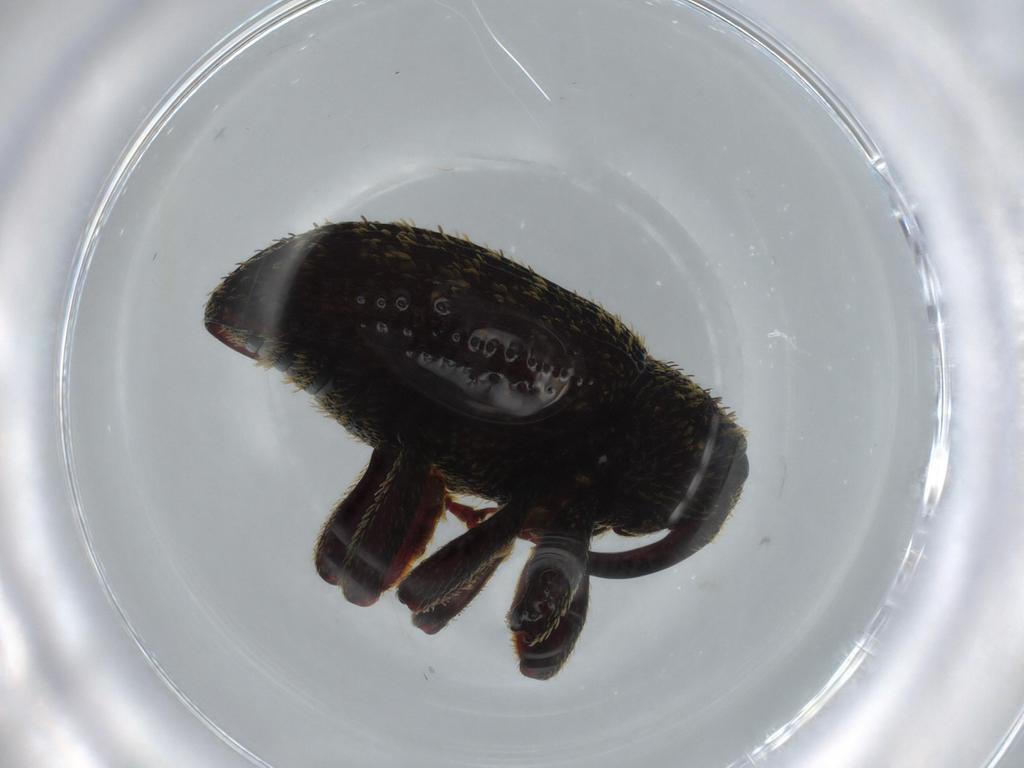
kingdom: Animalia
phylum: Arthropoda
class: Insecta
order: Coleoptera
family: Curculionidae
